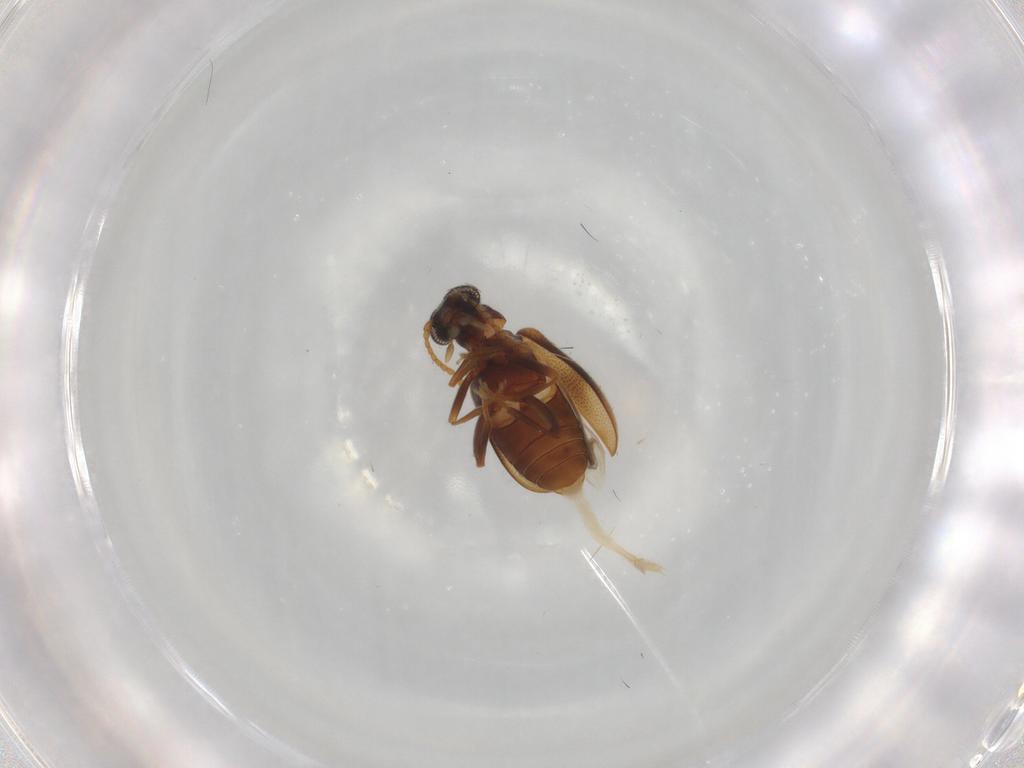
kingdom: Animalia
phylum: Arthropoda
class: Insecta
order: Coleoptera
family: Aderidae
